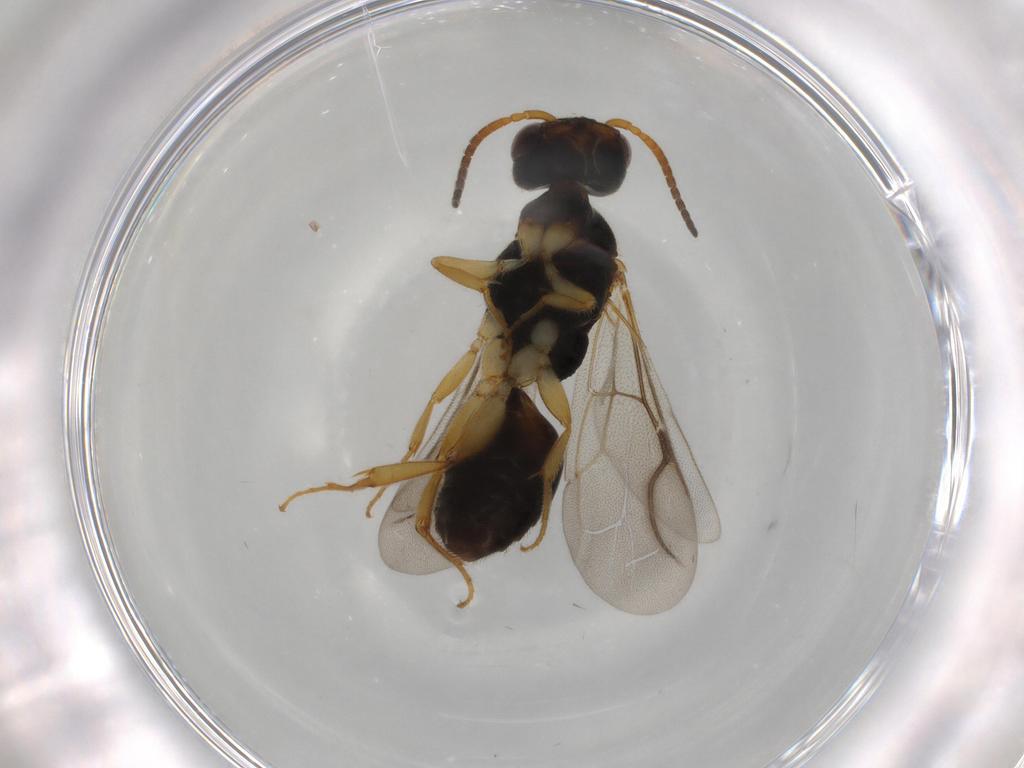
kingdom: Animalia
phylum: Arthropoda
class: Insecta
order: Hymenoptera
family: Bethylidae
